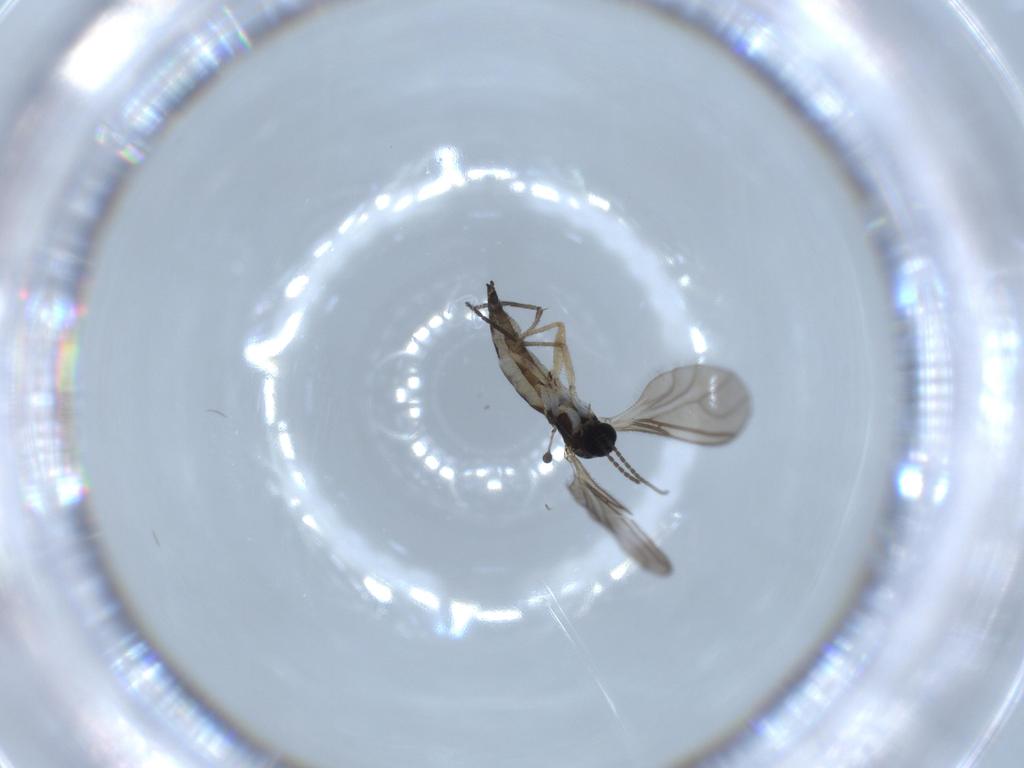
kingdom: Animalia
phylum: Arthropoda
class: Insecta
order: Diptera
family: Sciaridae
